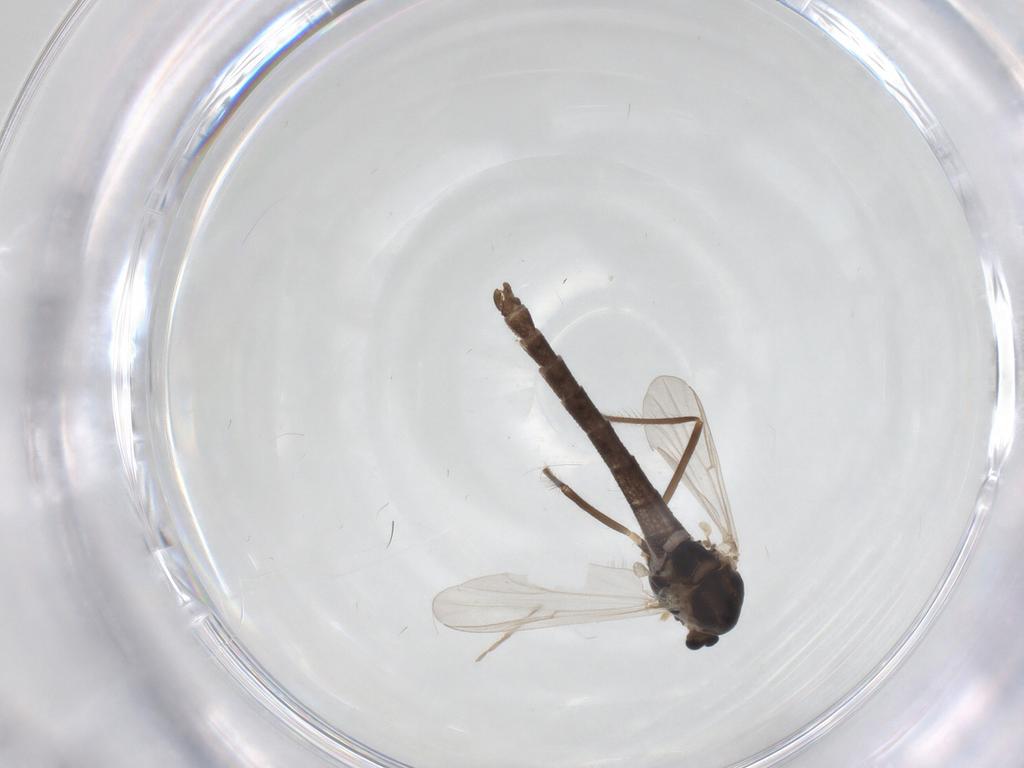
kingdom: Animalia
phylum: Arthropoda
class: Insecta
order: Diptera
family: Chironomidae
